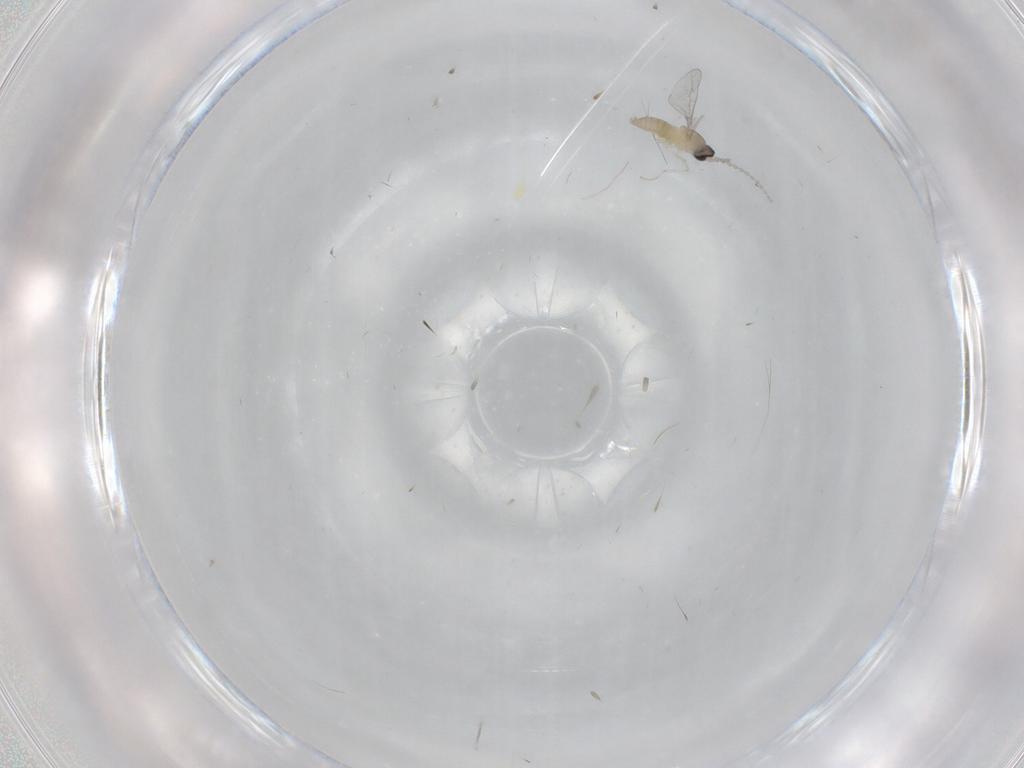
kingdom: Animalia
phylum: Arthropoda
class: Insecta
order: Diptera
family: Cecidomyiidae
